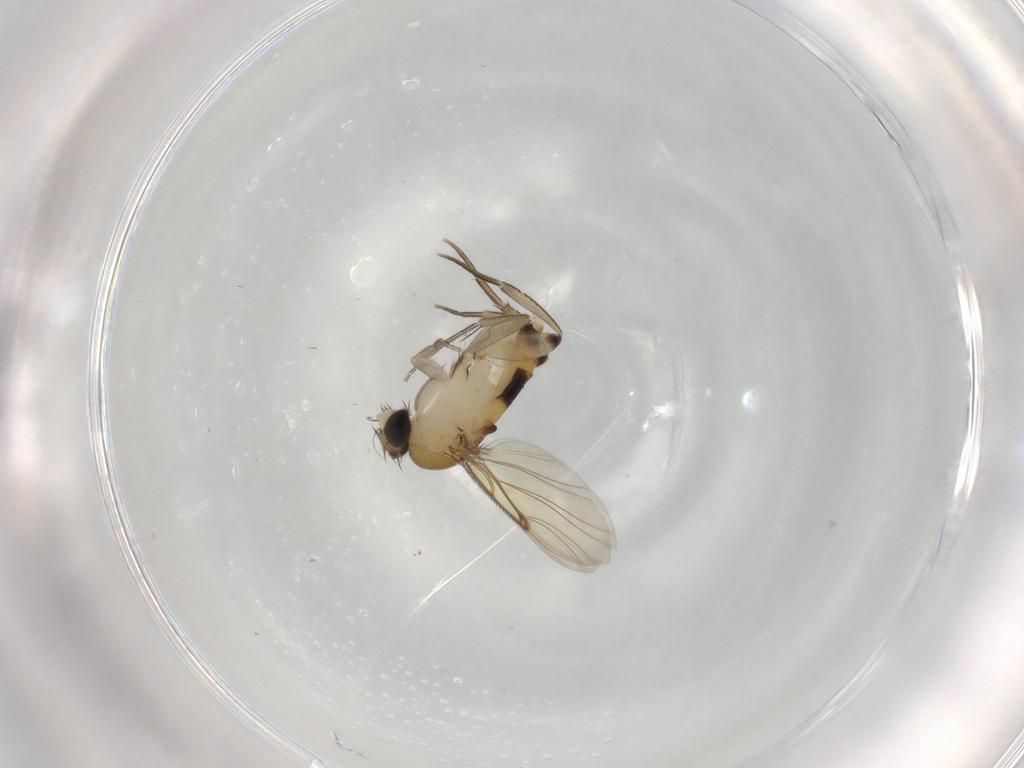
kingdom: Animalia
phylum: Arthropoda
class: Insecta
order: Diptera
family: Phoridae
